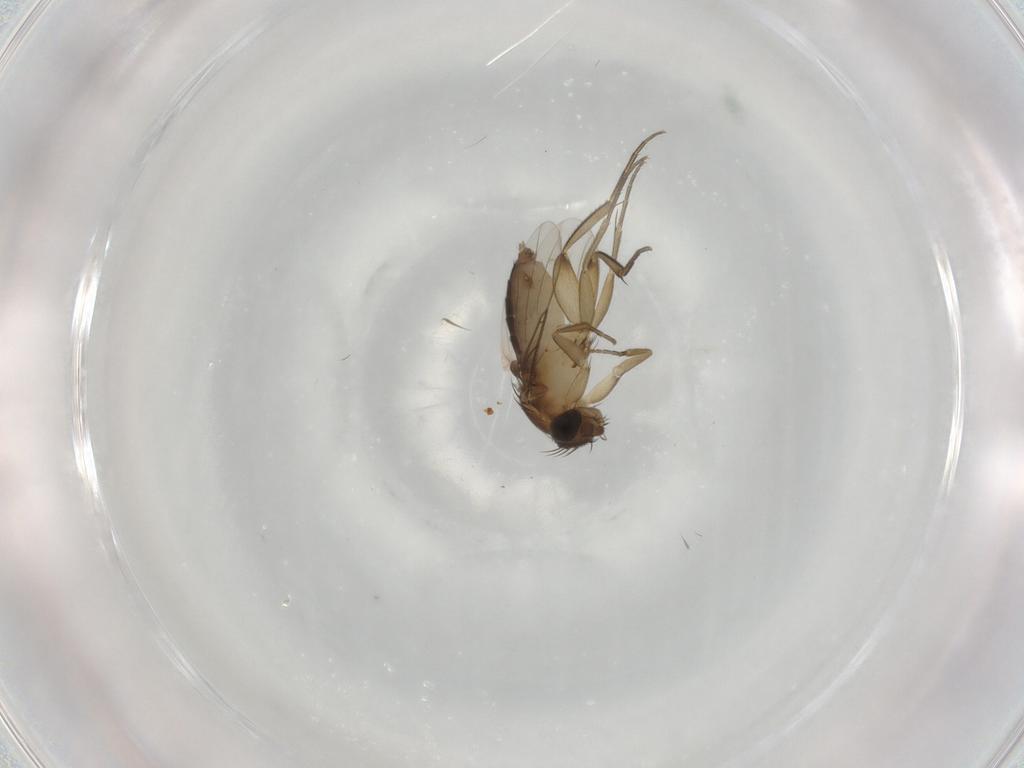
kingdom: Animalia
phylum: Arthropoda
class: Insecta
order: Diptera
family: Phoridae
